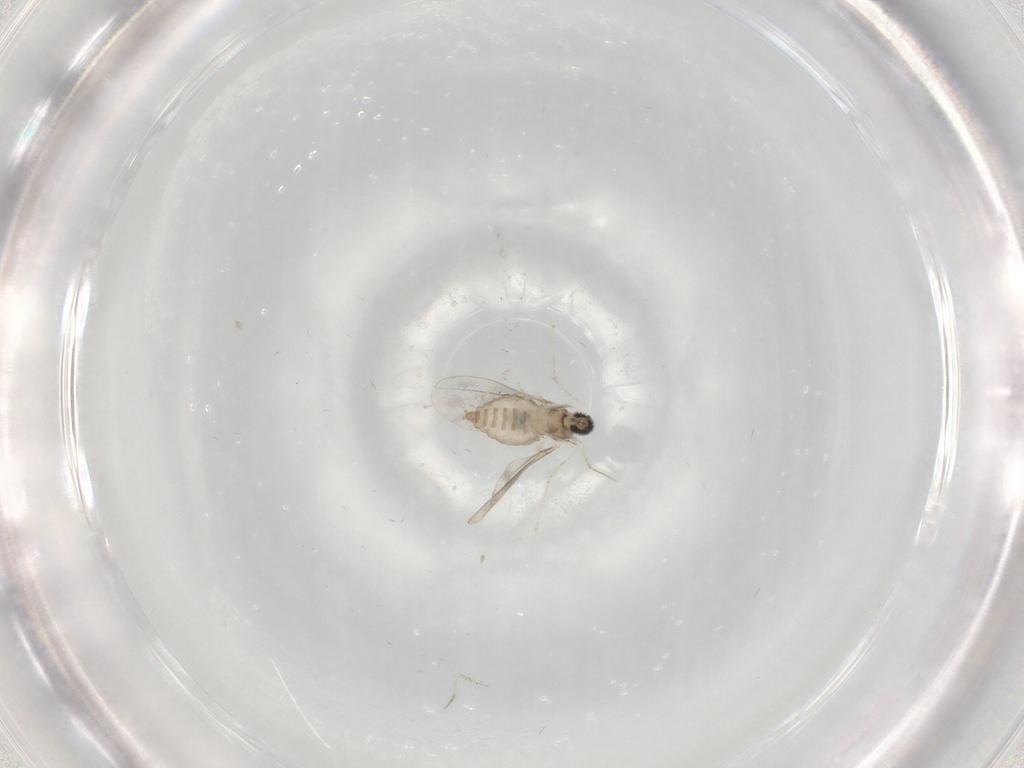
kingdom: Animalia
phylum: Arthropoda
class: Insecta
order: Diptera
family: Cecidomyiidae
